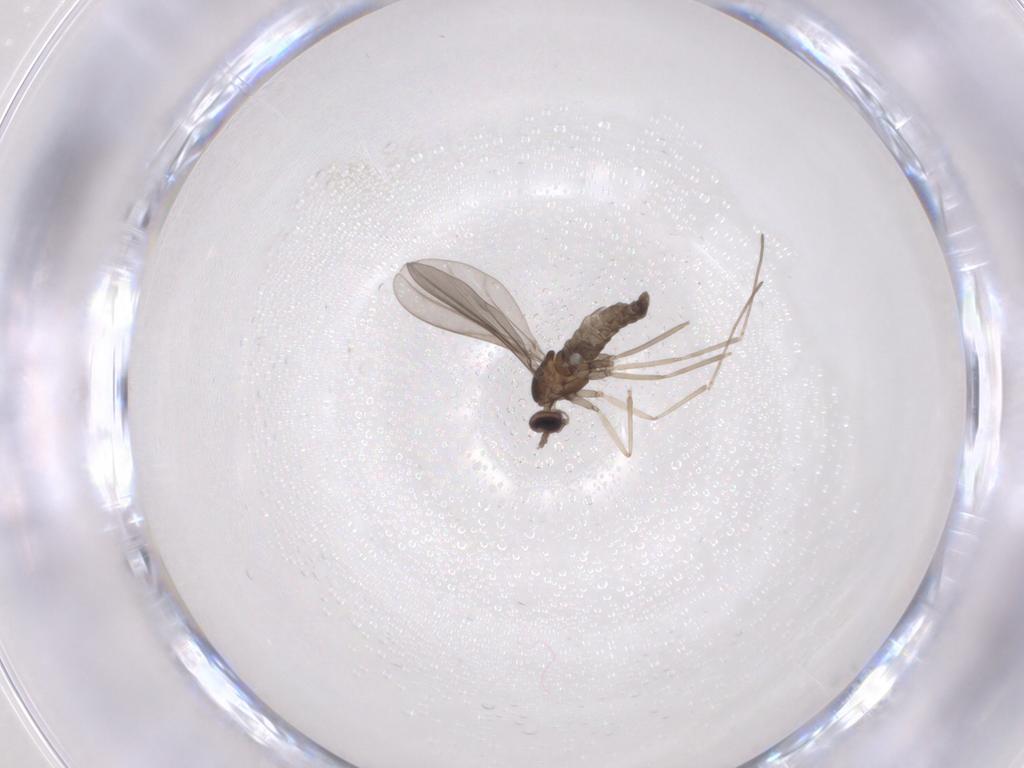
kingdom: Animalia
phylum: Arthropoda
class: Insecta
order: Diptera
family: Cecidomyiidae
